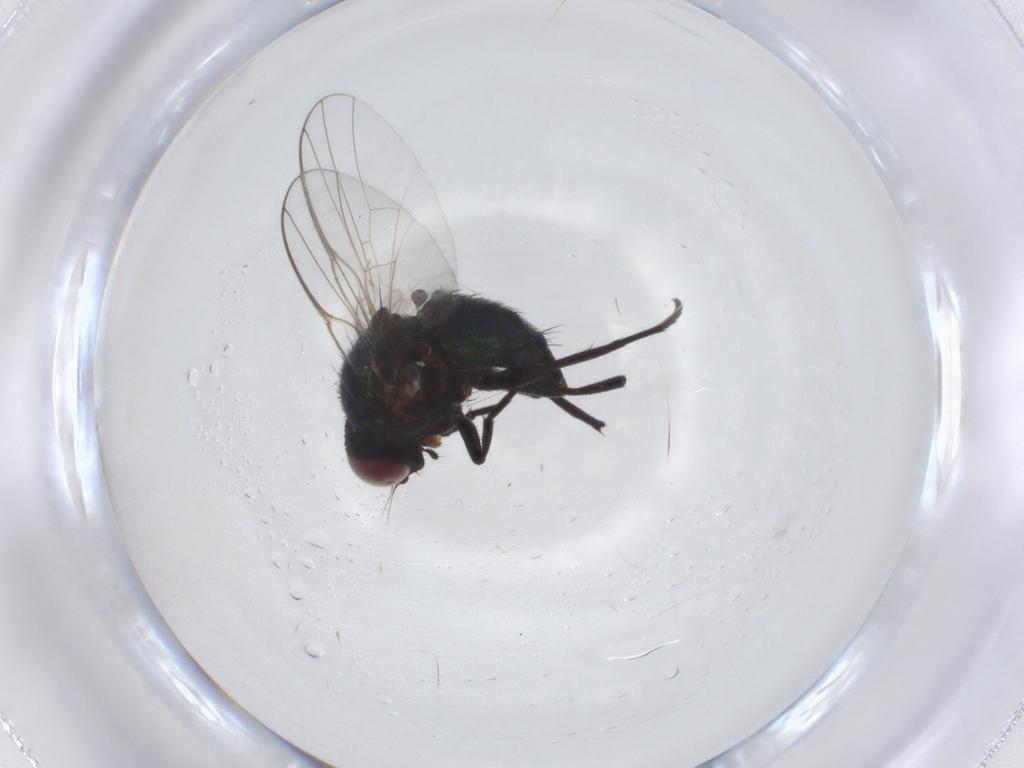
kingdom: Animalia
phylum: Arthropoda
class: Insecta
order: Diptera
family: Agromyzidae
